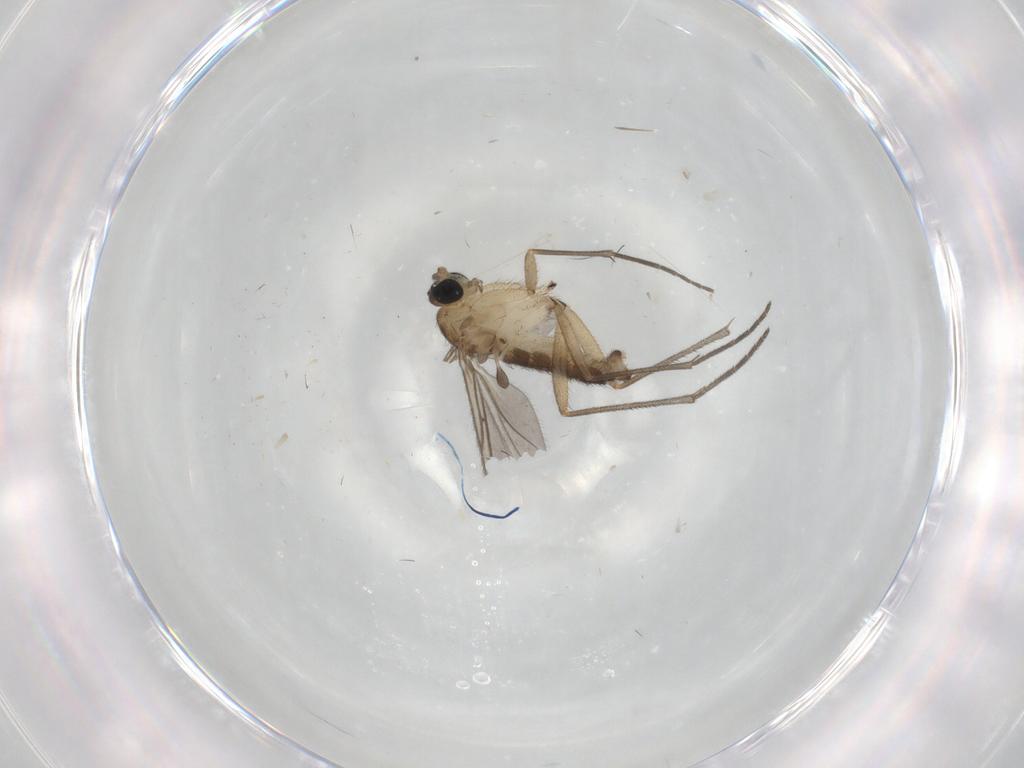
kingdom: Animalia
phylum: Arthropoda
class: Insecta
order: Diptera
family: Sciaridae
